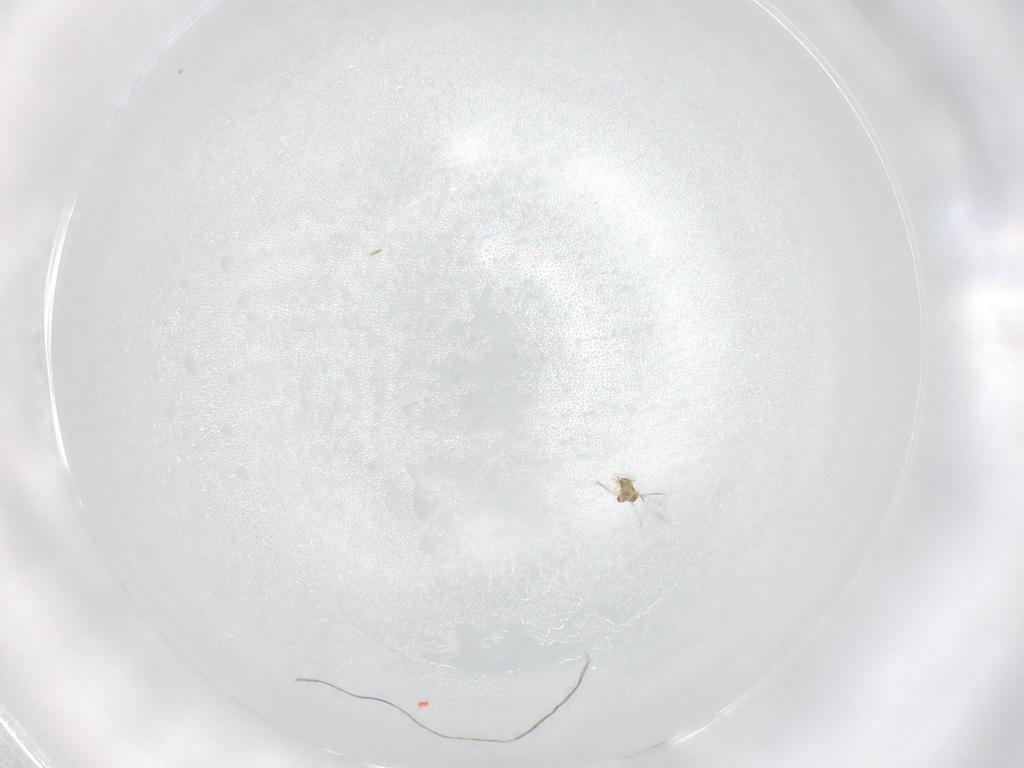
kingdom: Animalia
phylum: Arthropoda
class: Insecta
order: Hymenoptera
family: Mymaridae
